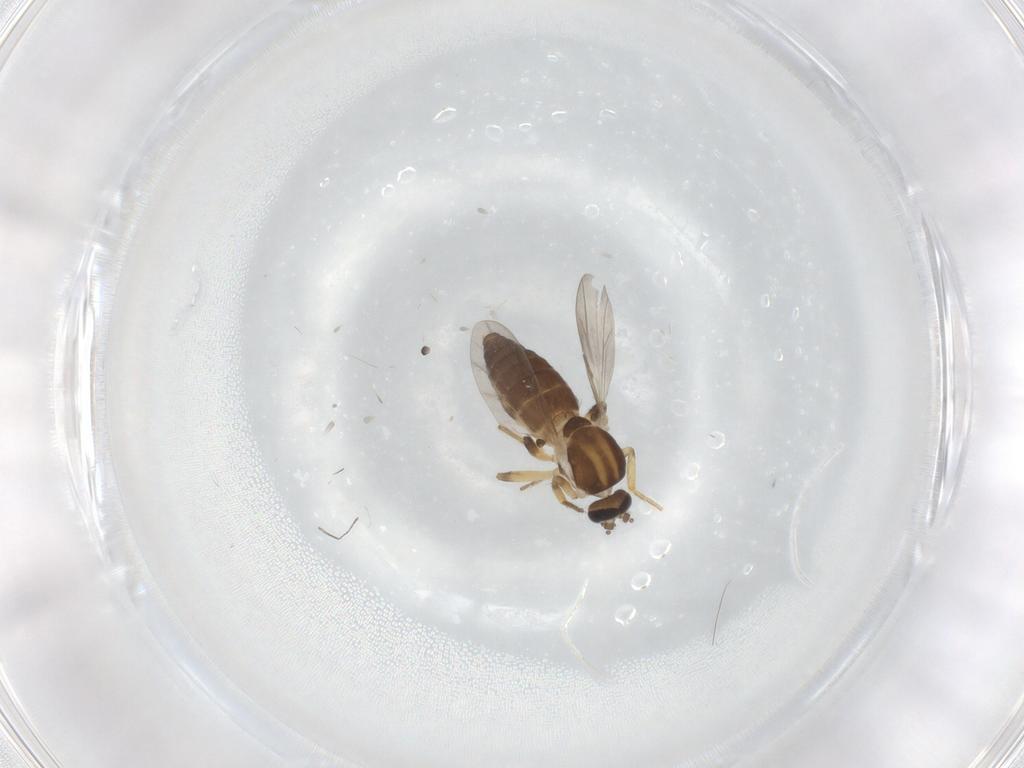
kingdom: Animalia
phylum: Arthropoda
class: Insecta
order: Diptera
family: Ceratopogonidae
